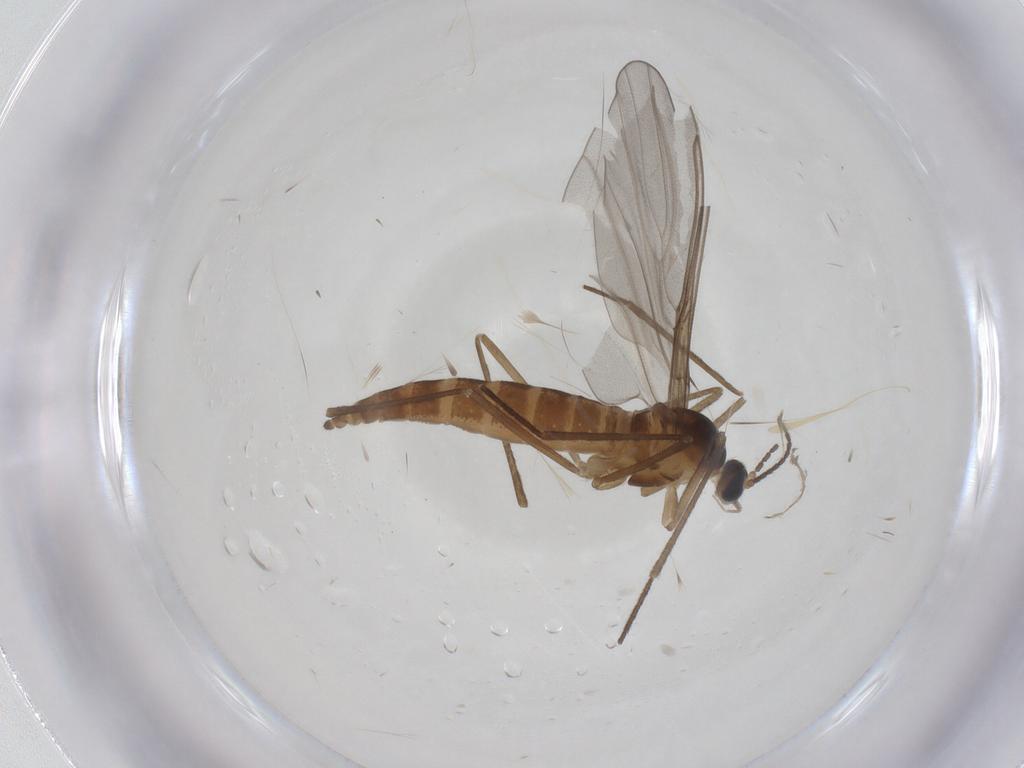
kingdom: Animalia
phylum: Arthropoda
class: Insecta
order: Diptera
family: Cecidomyiidae
